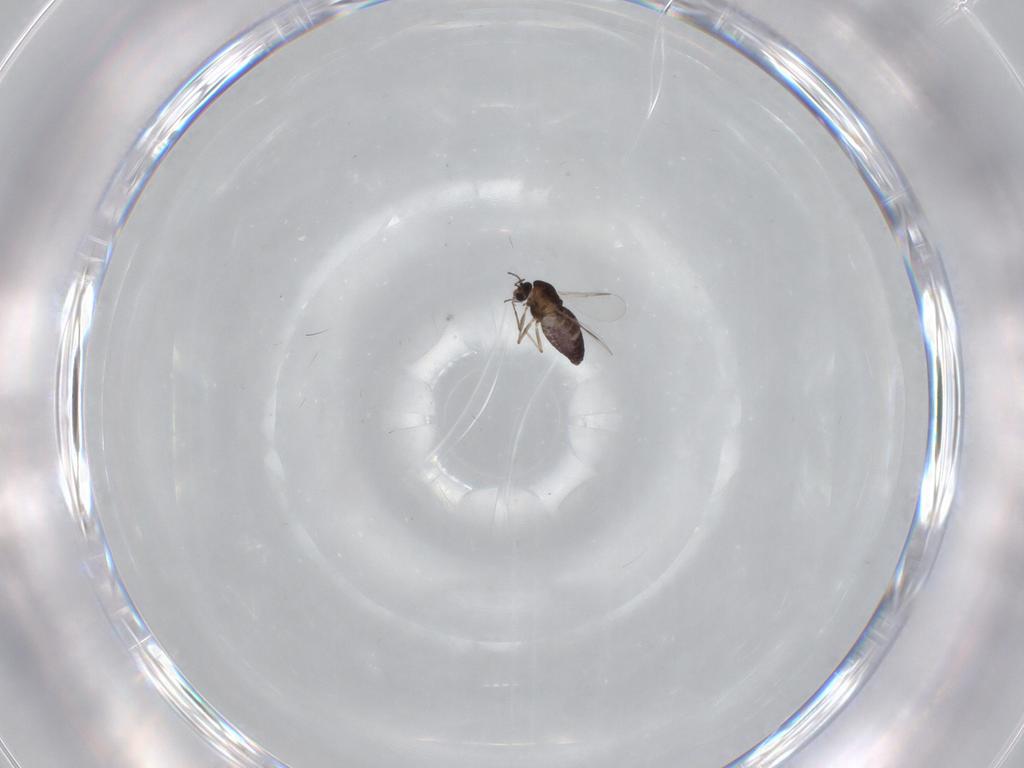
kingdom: Animalia
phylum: Arthropoda
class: Insecta
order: Diptera
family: Chironomidae
